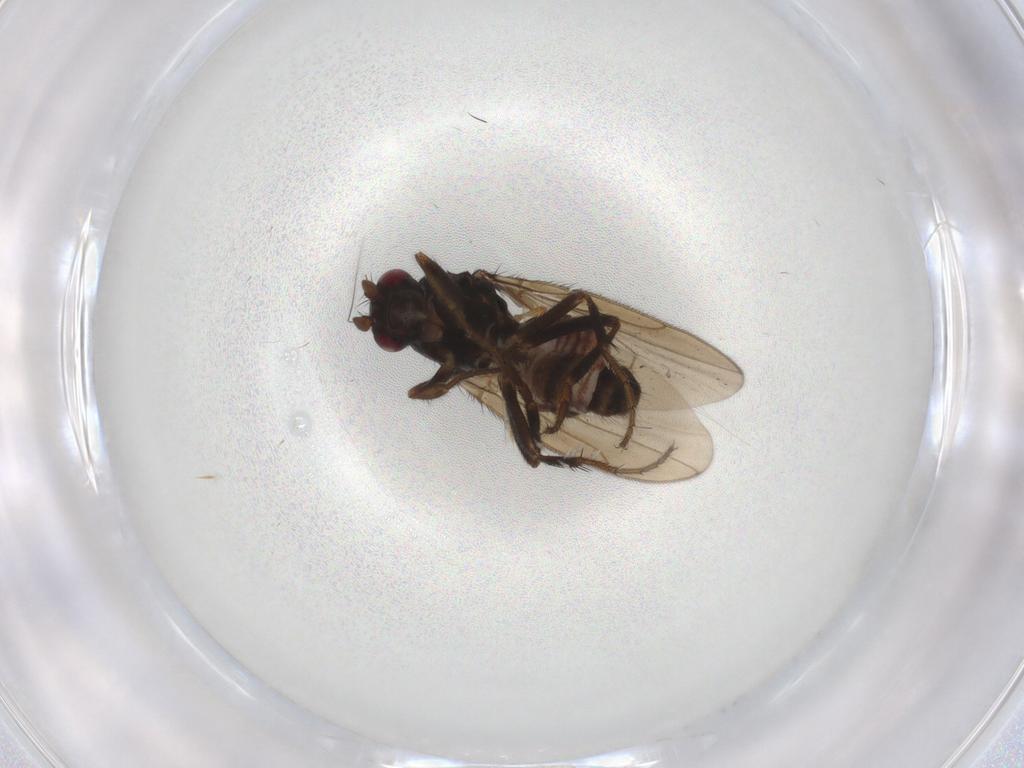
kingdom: Animalia
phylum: Arthropoda
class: Insecta
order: Diptera
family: Sphaeroceridae
